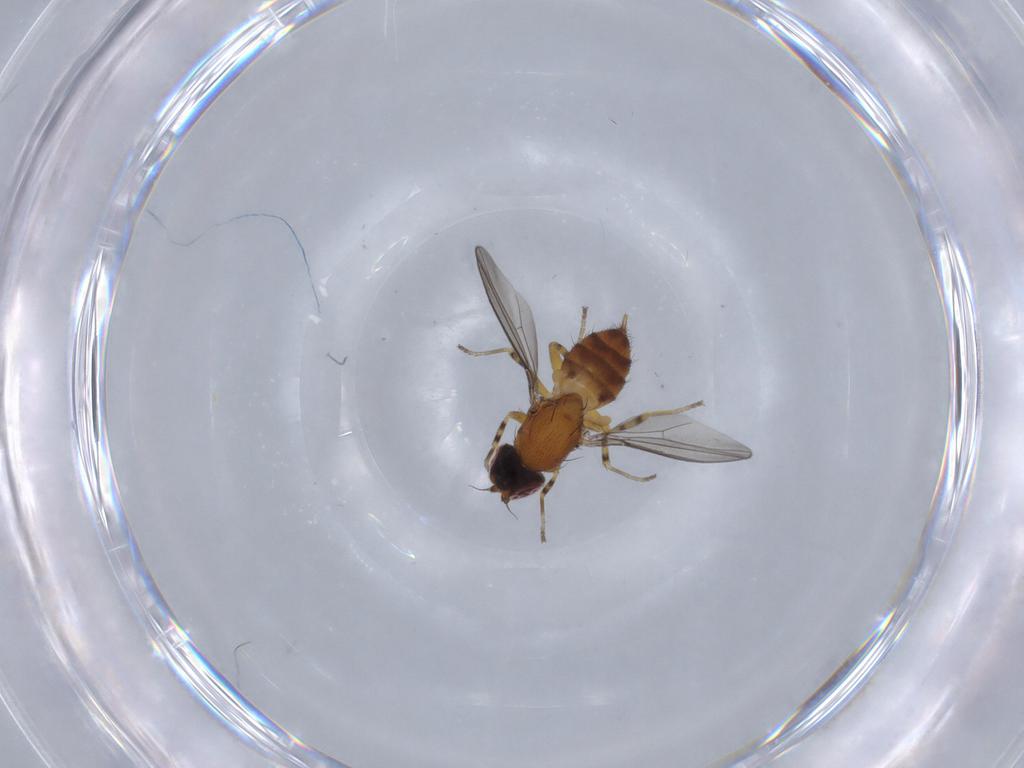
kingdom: Animalia
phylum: Arthropoda
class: Insecta
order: Diptera
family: Chloropidae
